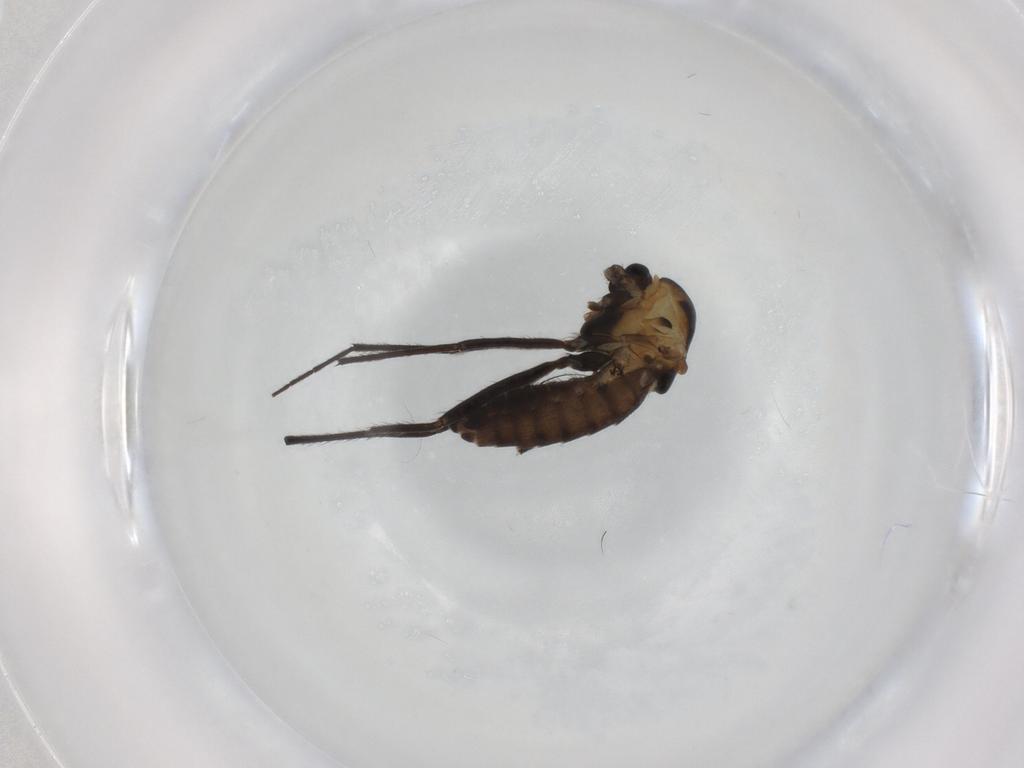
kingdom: Animalia
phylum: Arthropoda
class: Insecta
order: Diptera
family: Chironomidae
